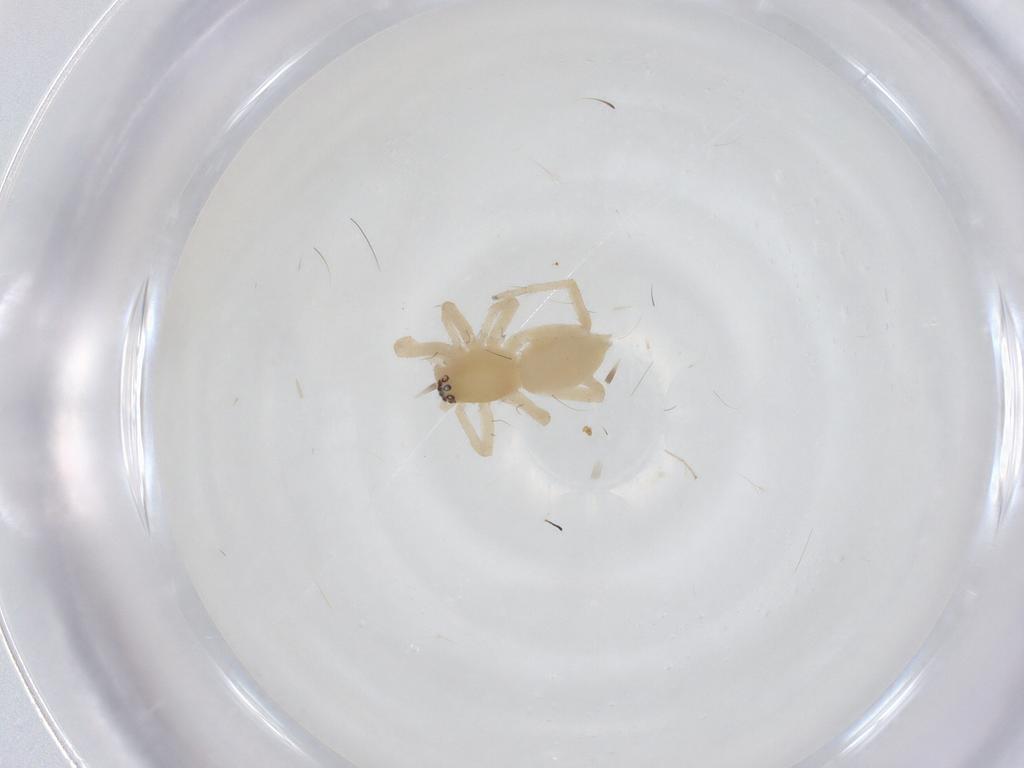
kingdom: Animalia
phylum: Arthropoda
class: Arachnida
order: Araneae
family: Anyphaenidae
